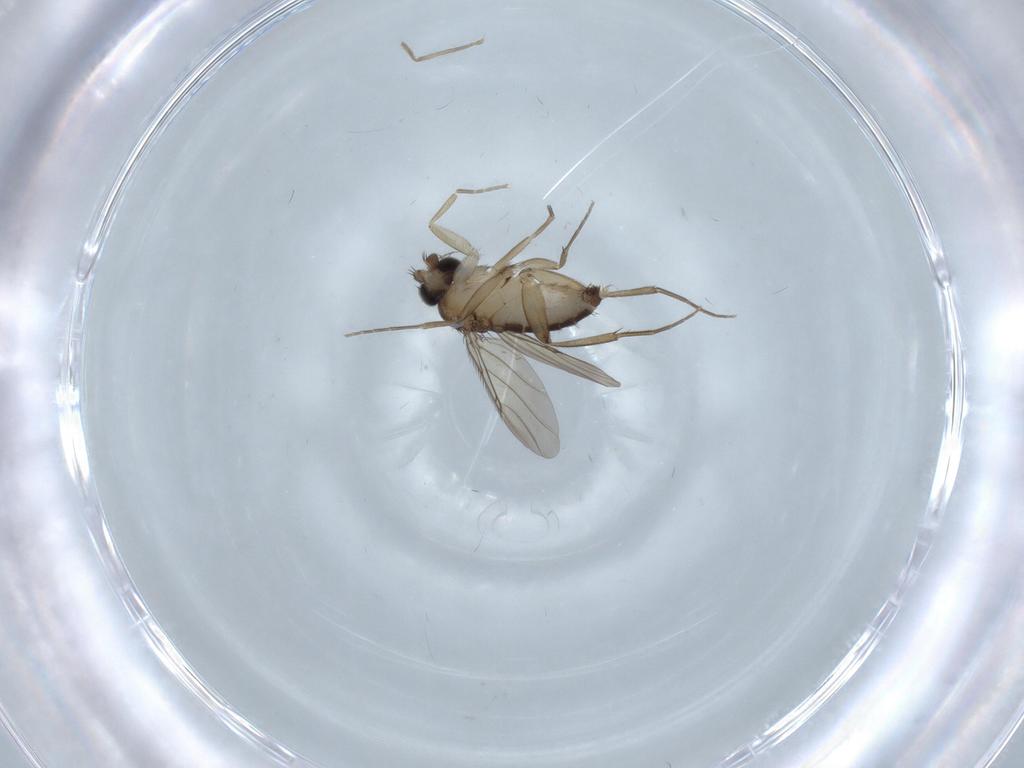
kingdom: Animalia
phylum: Arthropoda
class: Insecta
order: Diptera
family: Phoridae
